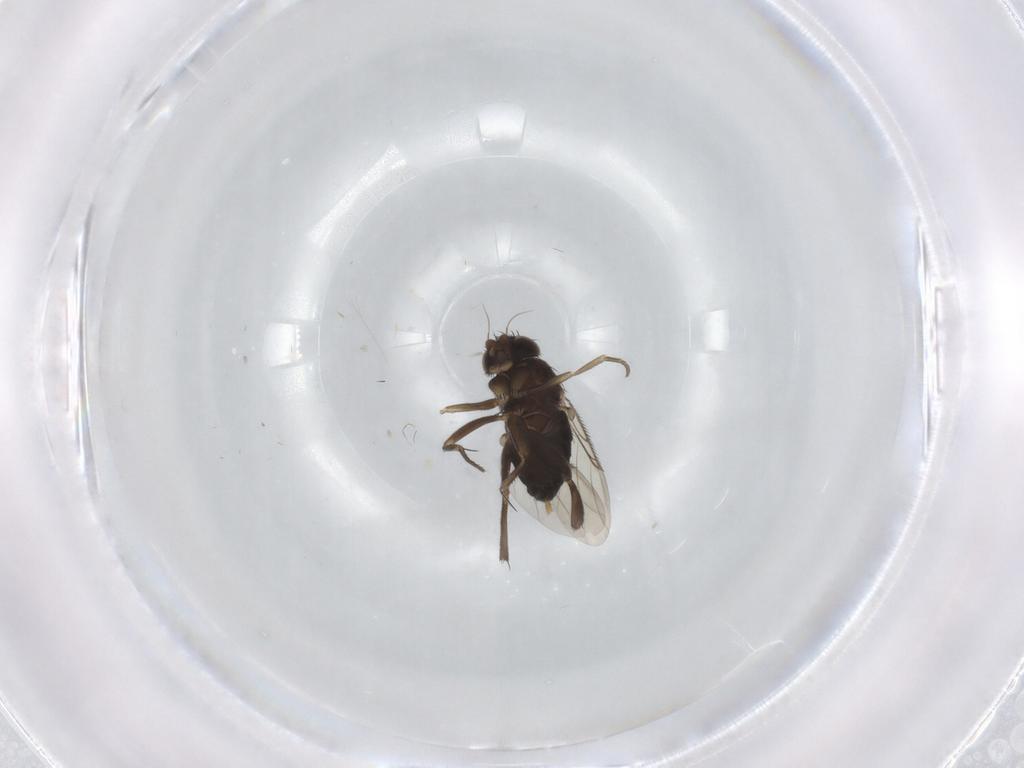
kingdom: Animalia
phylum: Arthropoda
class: Insecta
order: Diptera
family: Phoridae
